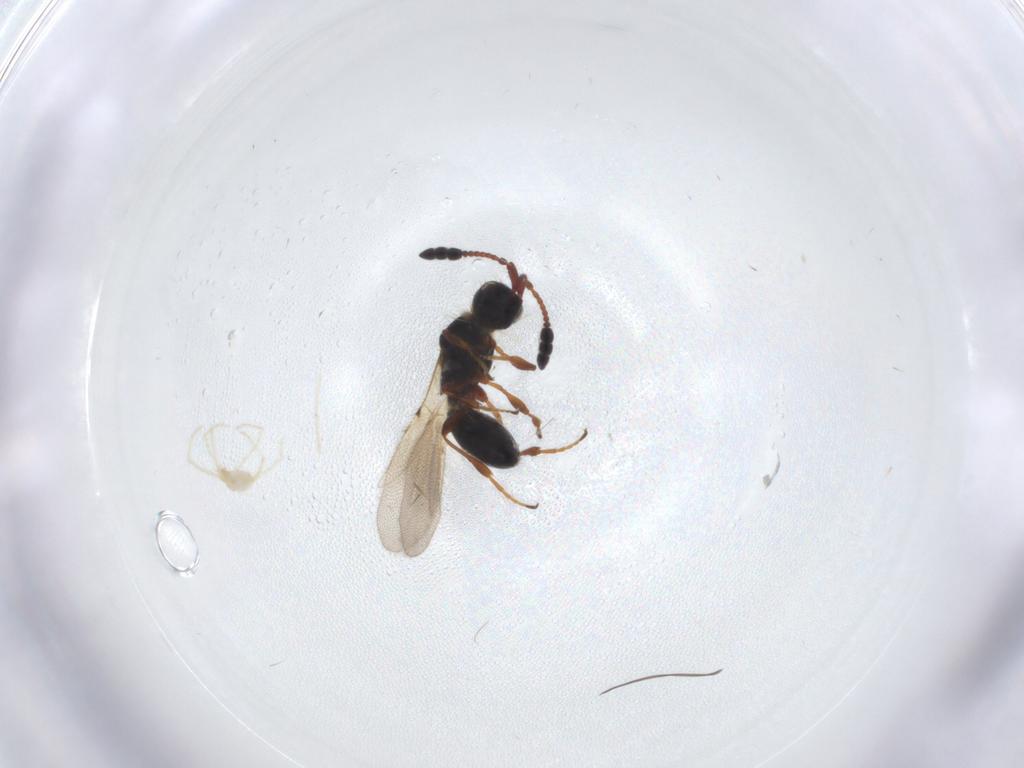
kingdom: Animalia
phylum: Arthropoda
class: Arachnida
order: Trombidiformes
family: Erythraeidae
